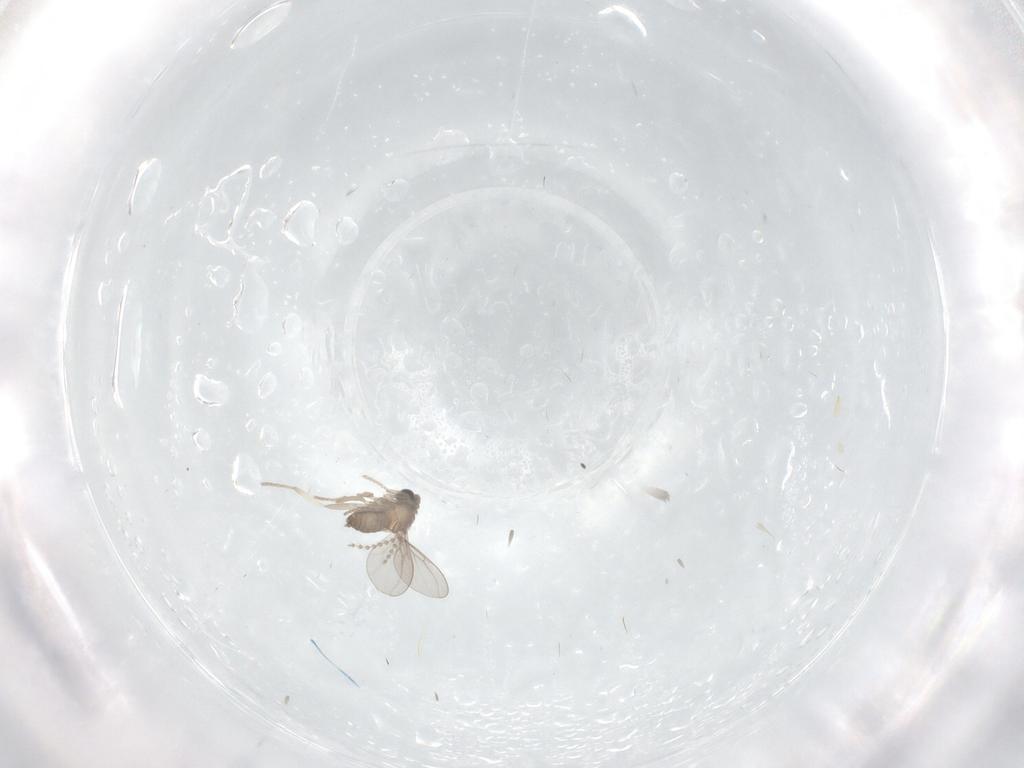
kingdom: Animalia
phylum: Arthropoda
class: Insecta
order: Diptera
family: Cecidomyiidae
